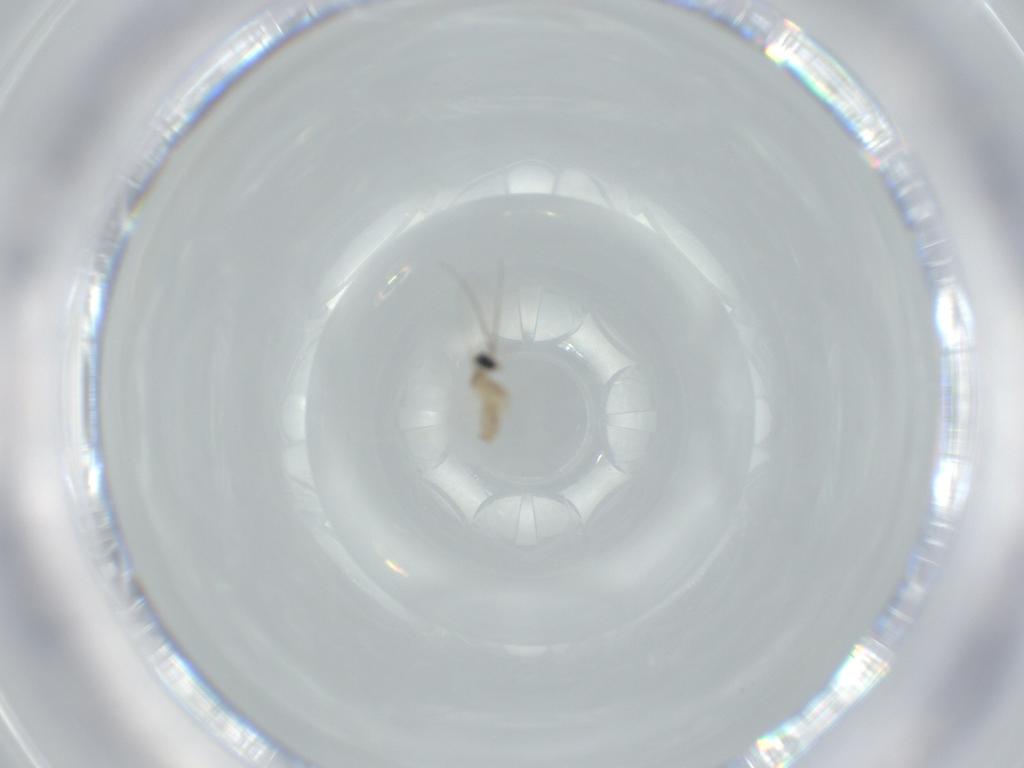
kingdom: Animalia
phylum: Arthropoda
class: Insecta
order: Diptera
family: Cecidomyiidae
